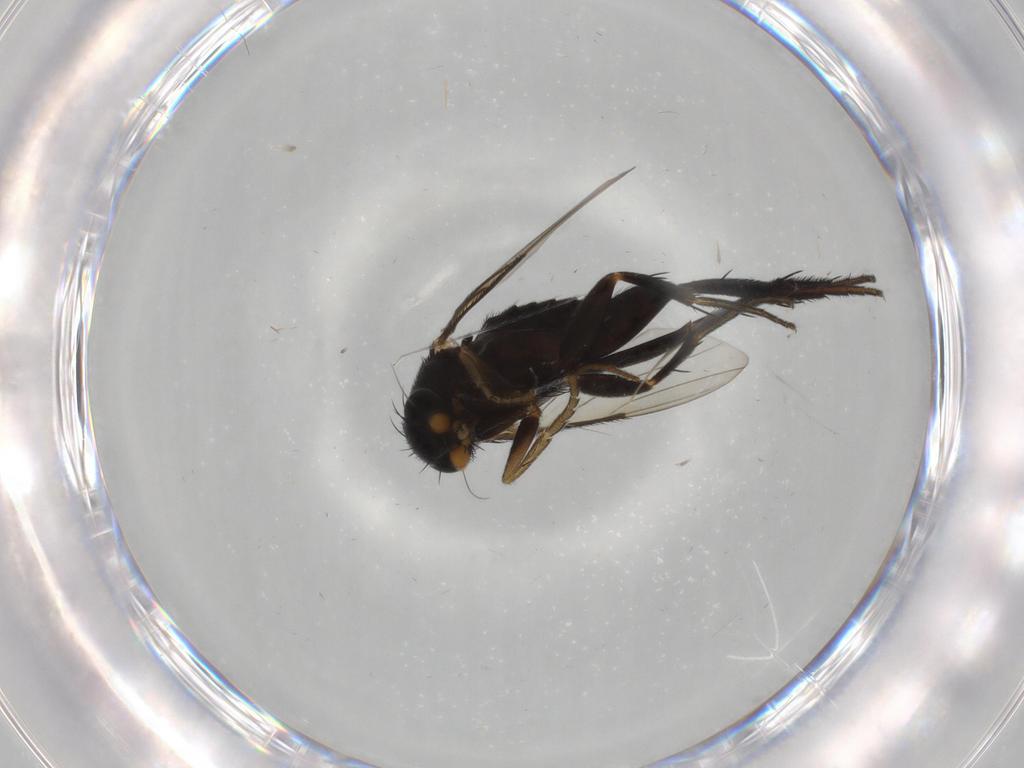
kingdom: Animalia
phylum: Arthropoda
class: Insecta
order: Diptera
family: Phoridae
